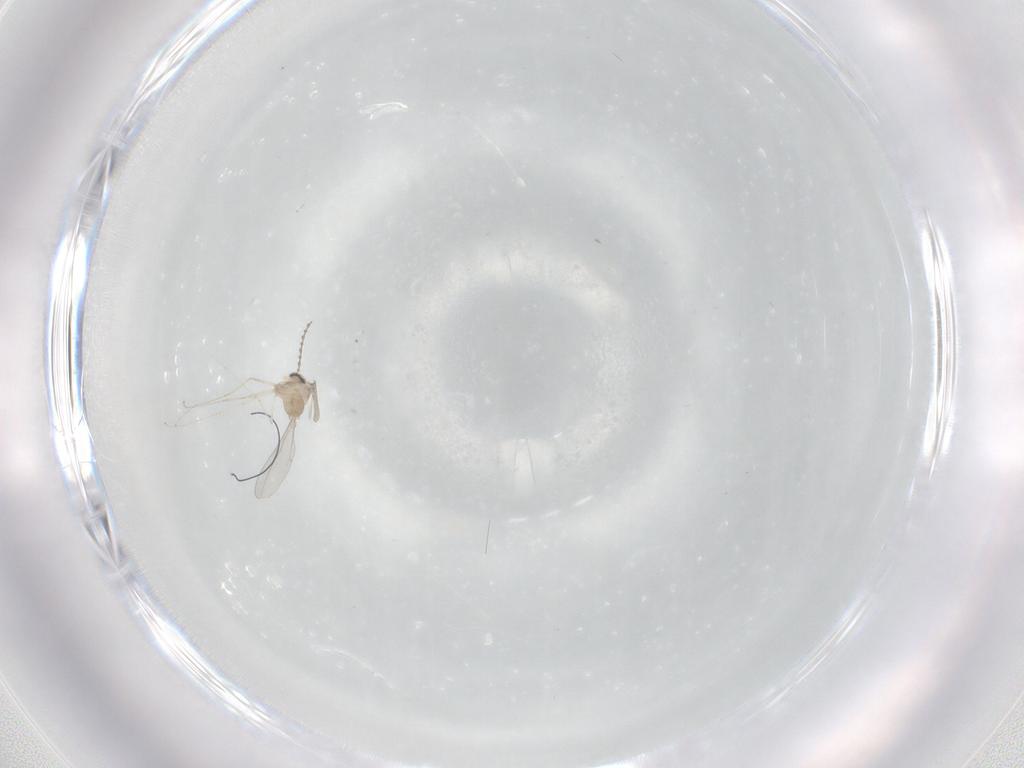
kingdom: Animalia
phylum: Arthropoda
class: Insecta
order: Diptera
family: Cecidomyiidae
